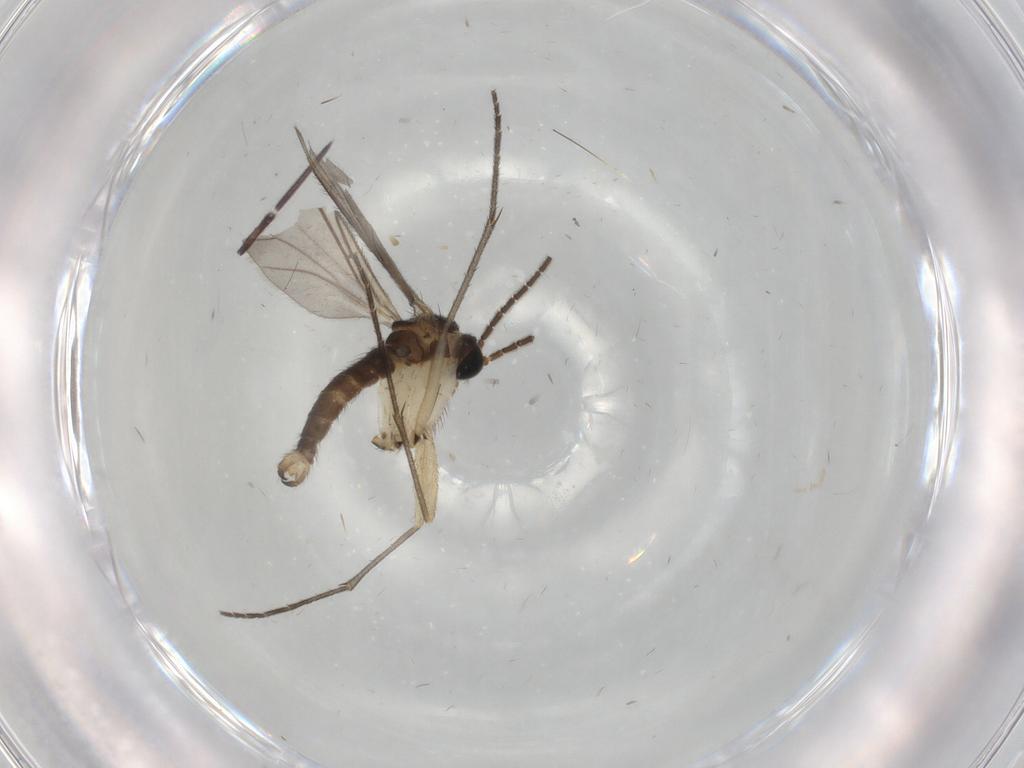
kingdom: Animalia
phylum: Arthropoda
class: Insecta
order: Diptera
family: Sciaridae
